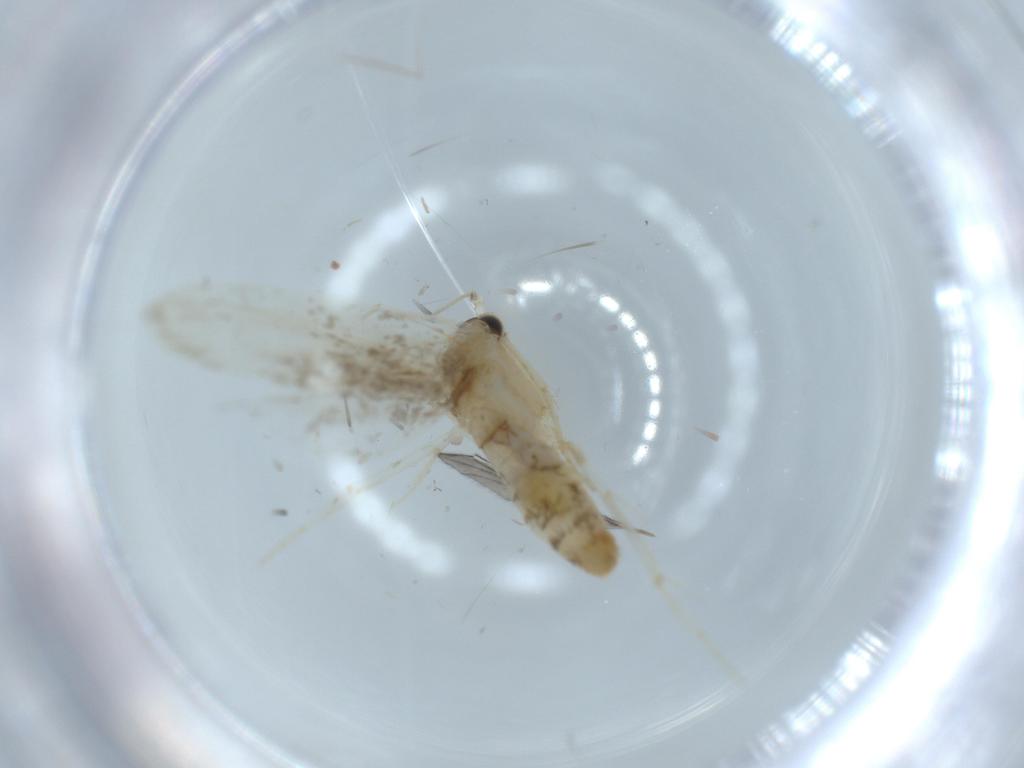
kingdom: Animalia
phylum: Arthropoda
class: Insecta
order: Lepidoptera
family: Tineidae
